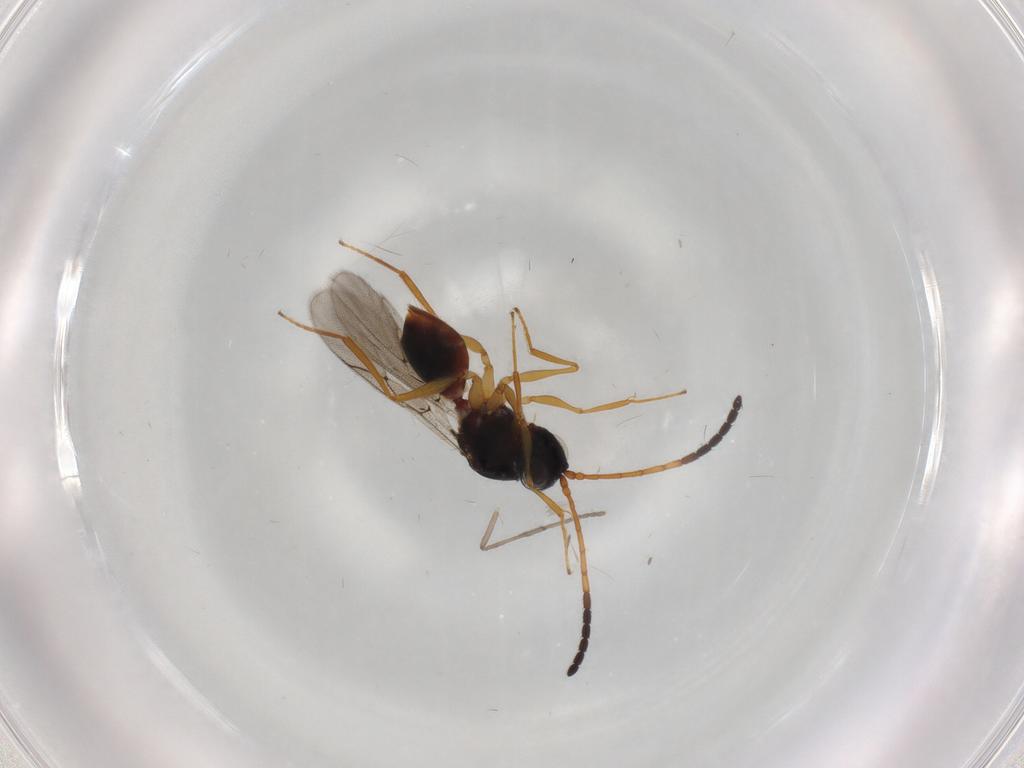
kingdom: Animalia
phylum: Arthropoda
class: Insecta
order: Hymenoptera
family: Figitidae
